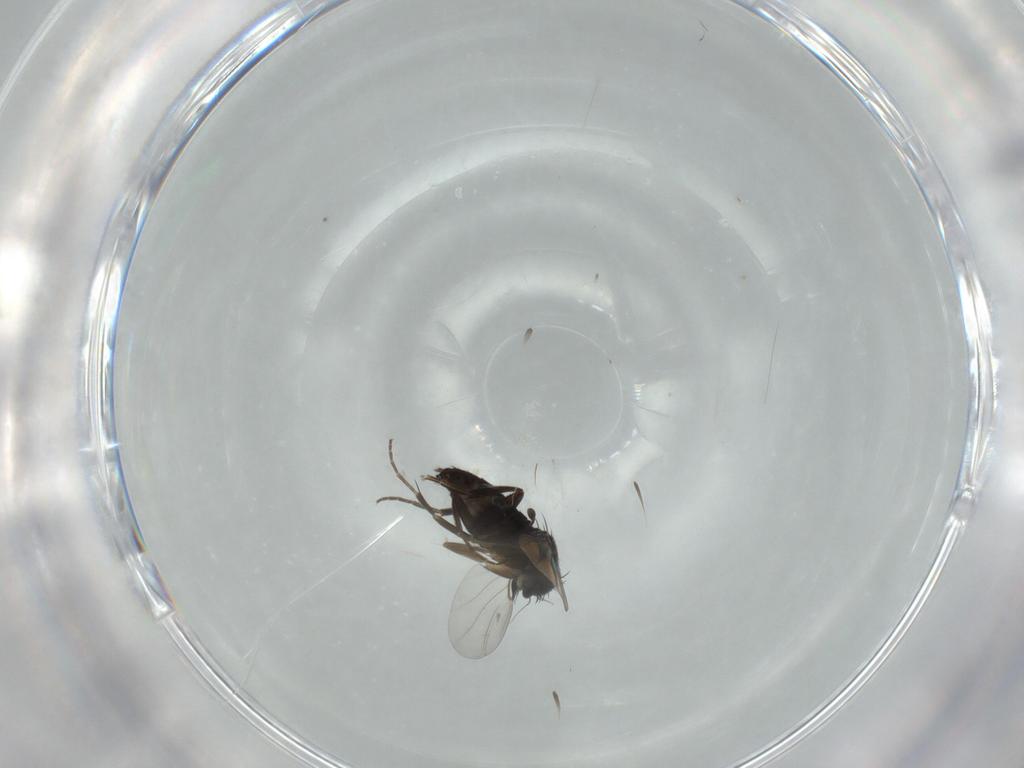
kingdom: Animalia
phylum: Arthropoda
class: Insecta
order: Diptera
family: Phoridae
